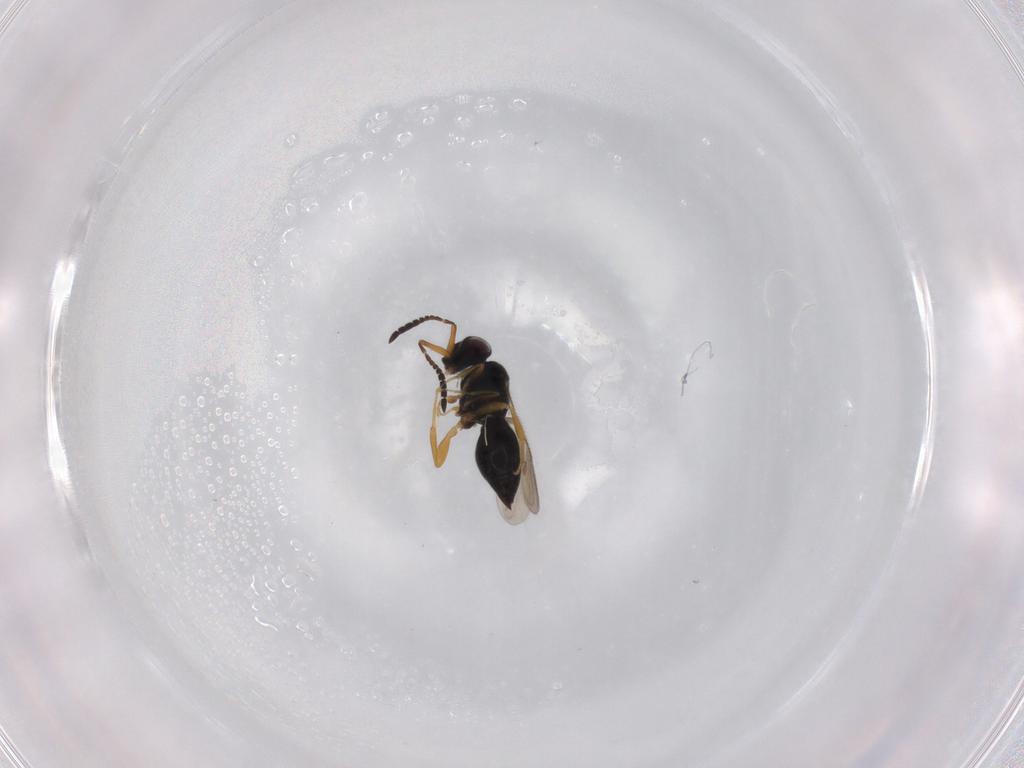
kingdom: Animalia
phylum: Arthropoda
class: Insecta
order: Hymenoptera
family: Ceraphronidae
